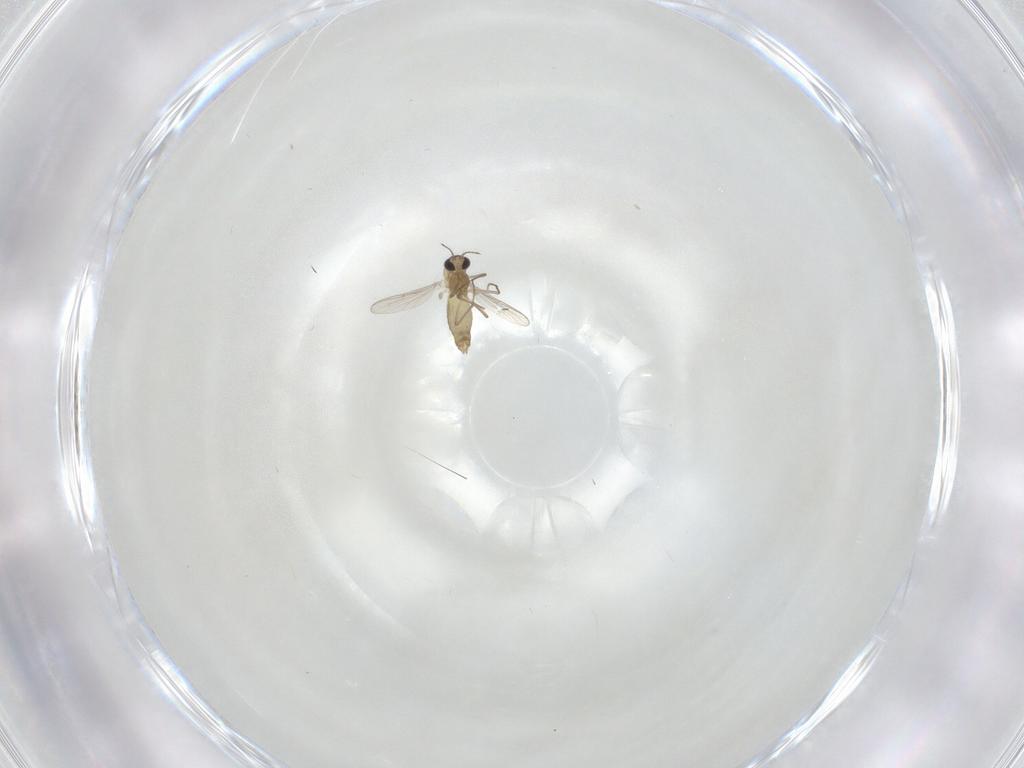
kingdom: Animalia
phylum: Arthropoda
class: Insecta
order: Diptera
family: Chironomidae
